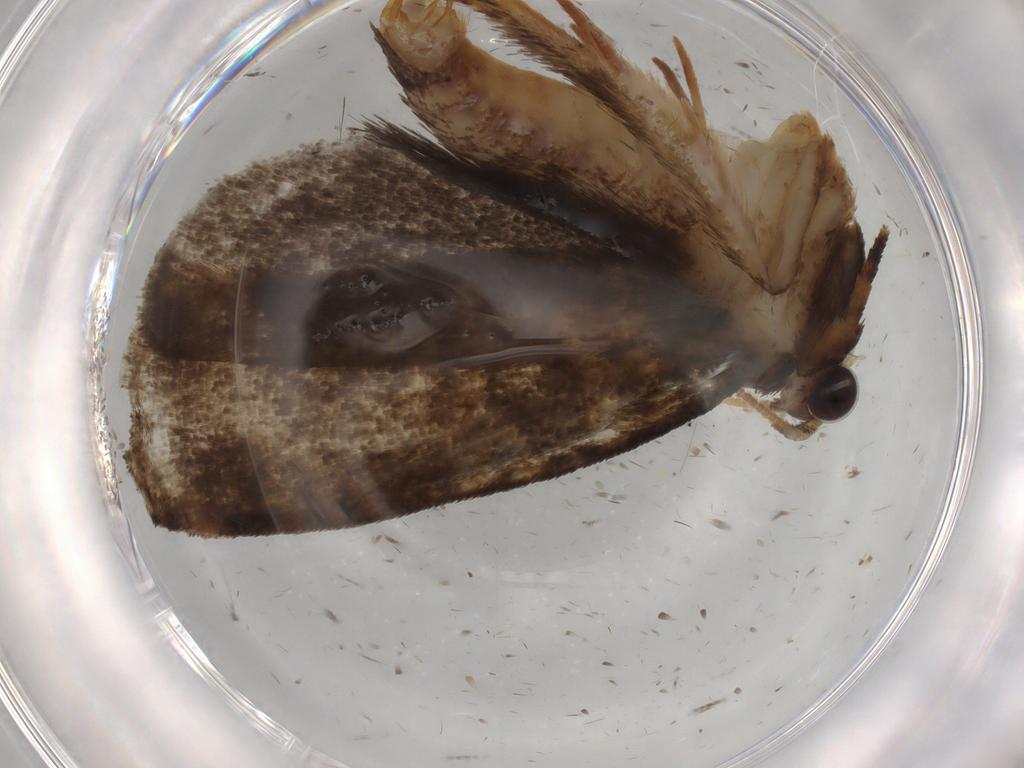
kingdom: Animalia
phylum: Arthropoda
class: Insecta
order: Lepidoptera
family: Tineidae
